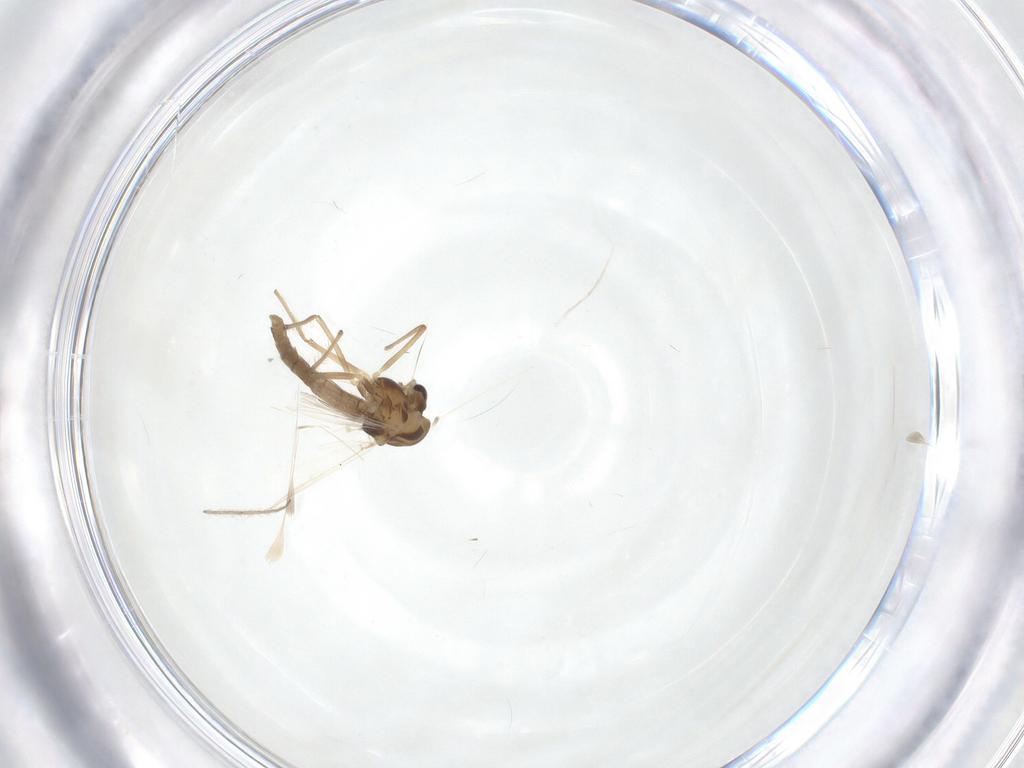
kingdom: Animalia
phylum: Arthropoda
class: Insecta
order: Diptera
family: Chironomidae
